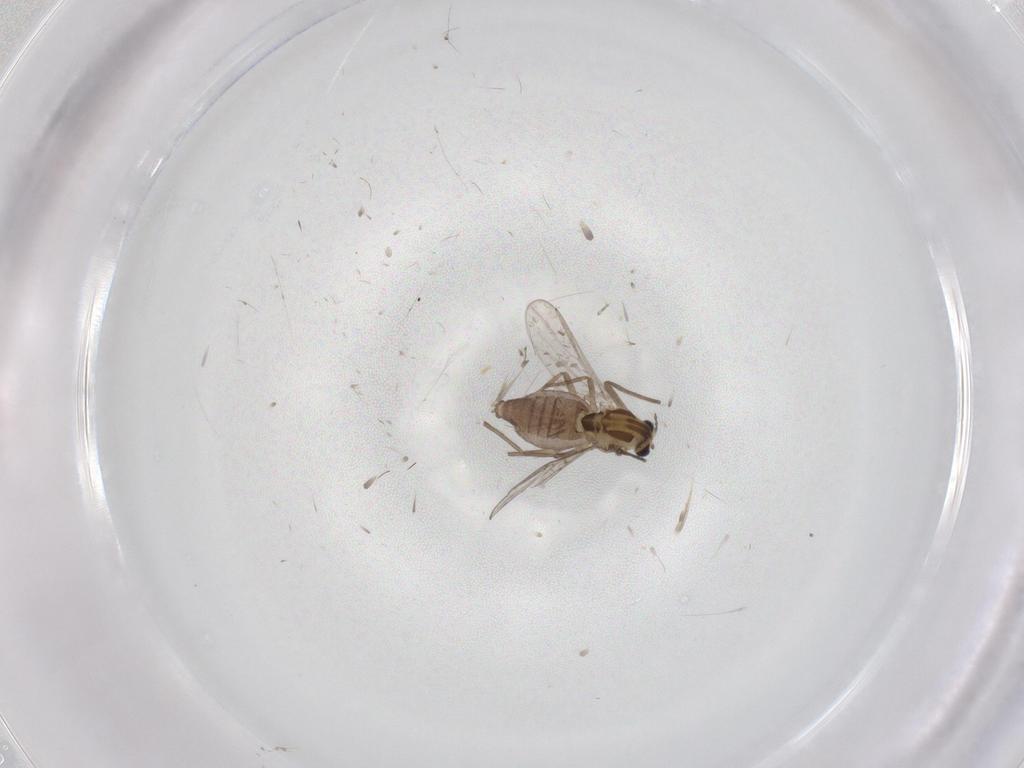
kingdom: Animalia
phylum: Arthropoda
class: Insecta
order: Diptera
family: Chironomidae
